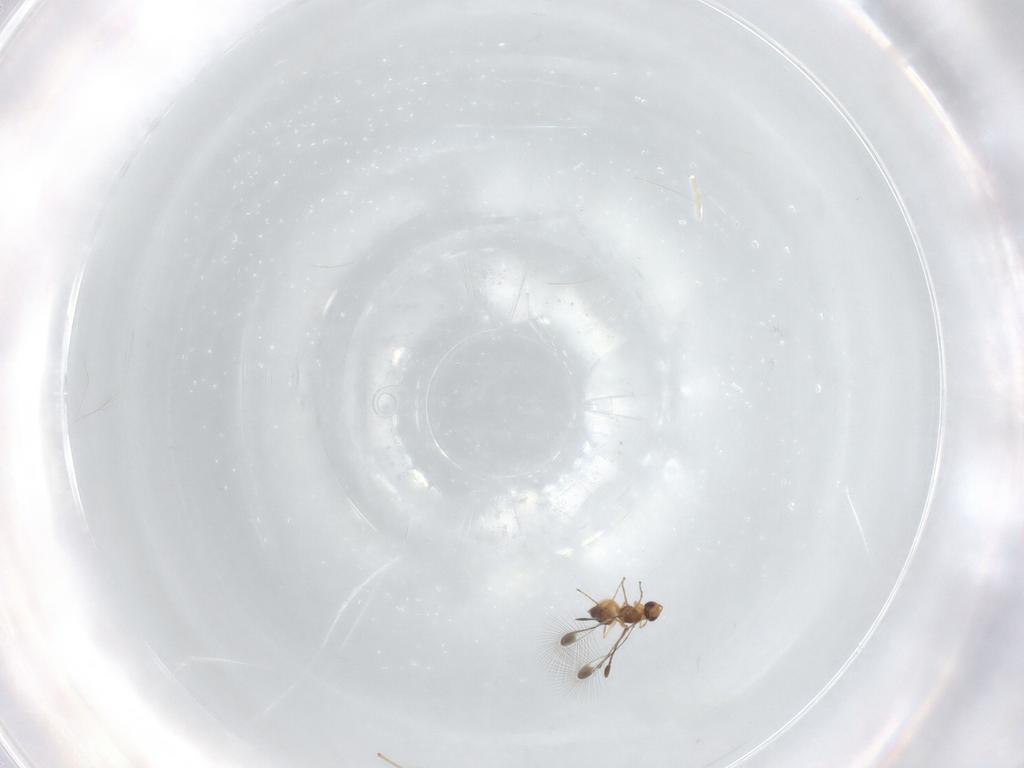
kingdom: Animalia
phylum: Arthropoda
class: Insecta
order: Hymenoptera
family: Mymaridae
